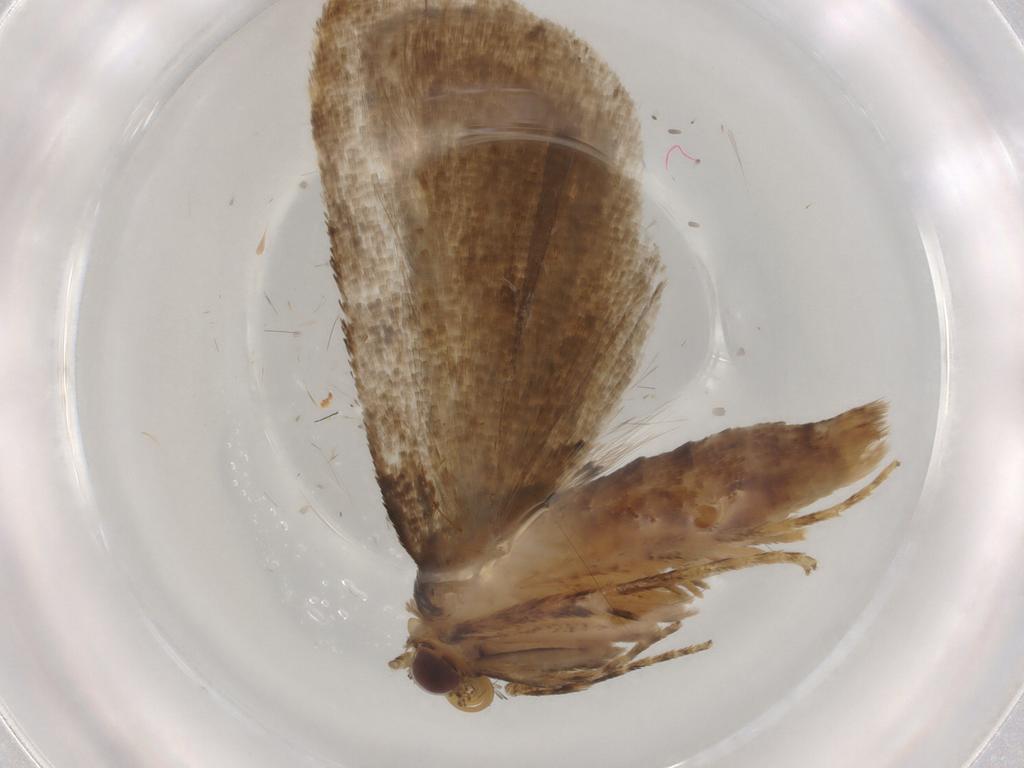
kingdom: Animalia
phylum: Arthropoda
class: Insecta
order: Lepidoptera
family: Erebidae
